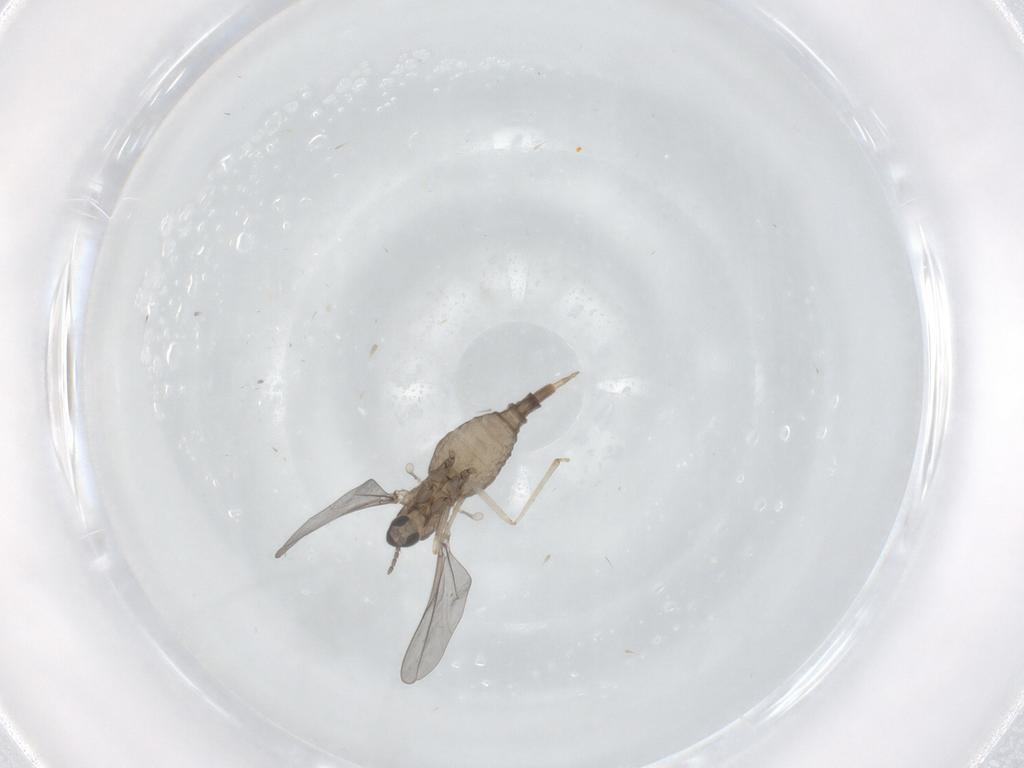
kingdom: Animalia
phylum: Arthropoda
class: Insecta
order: Diptera
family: Cecidomyiidae
